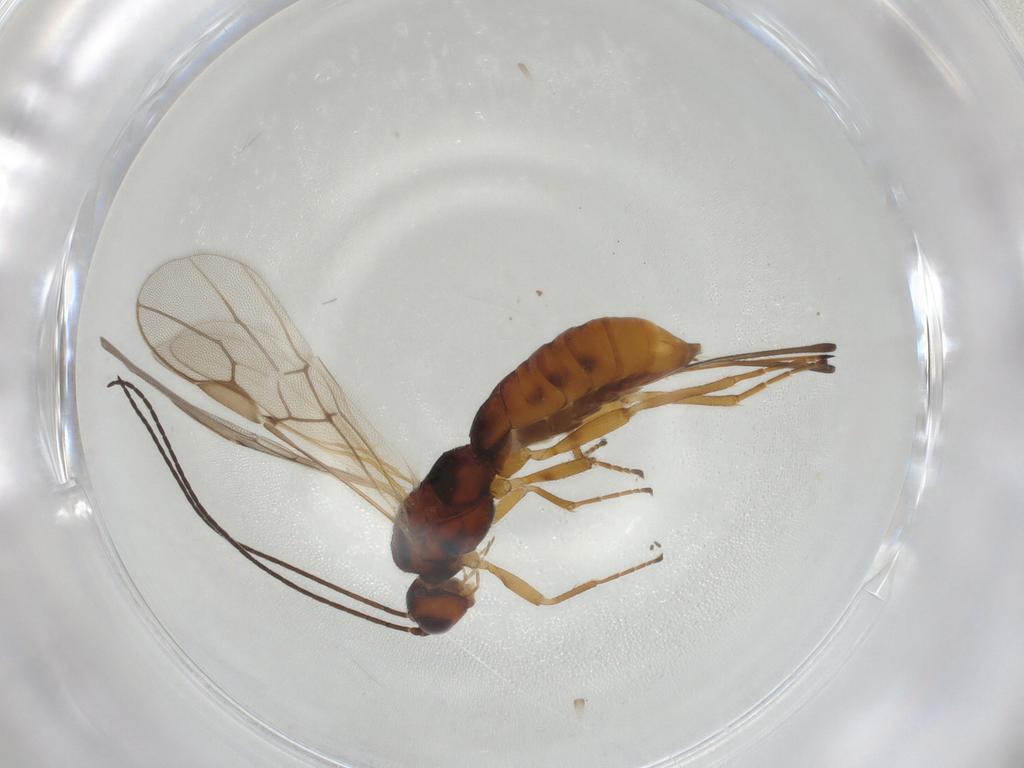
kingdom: Animalia
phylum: Arthropoda
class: Insecta
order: Hymenoptera
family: Braconidae
